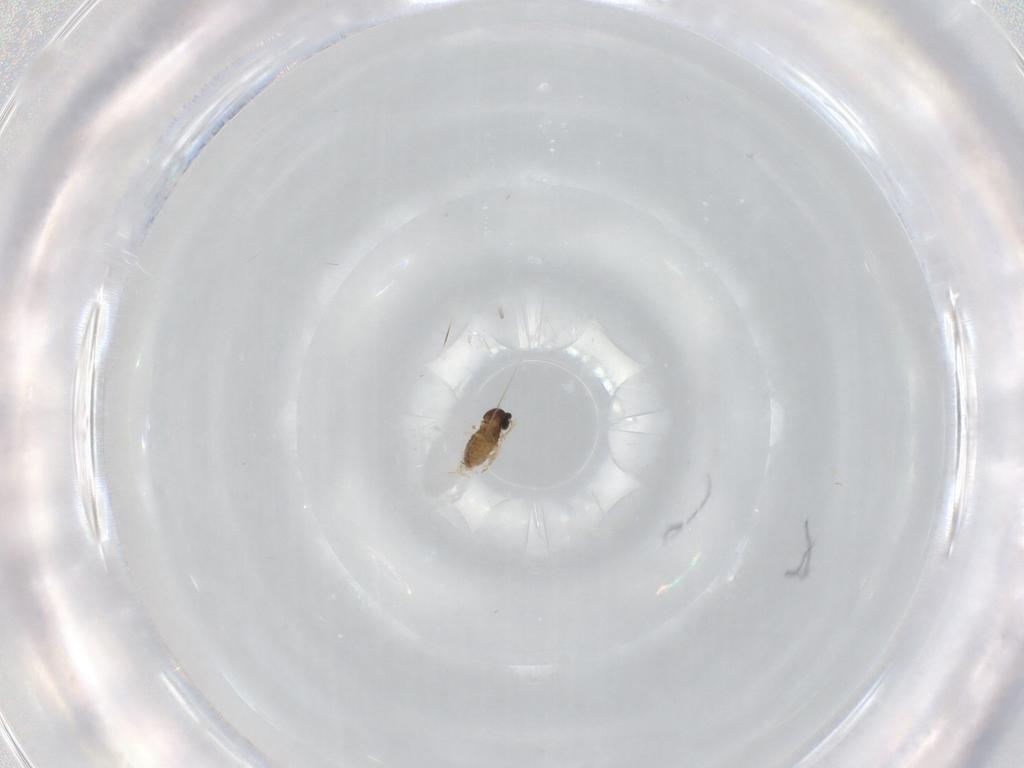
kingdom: Animalia
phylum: Arthropoda
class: Insecta
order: Diptera
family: Cecidomyiidae
